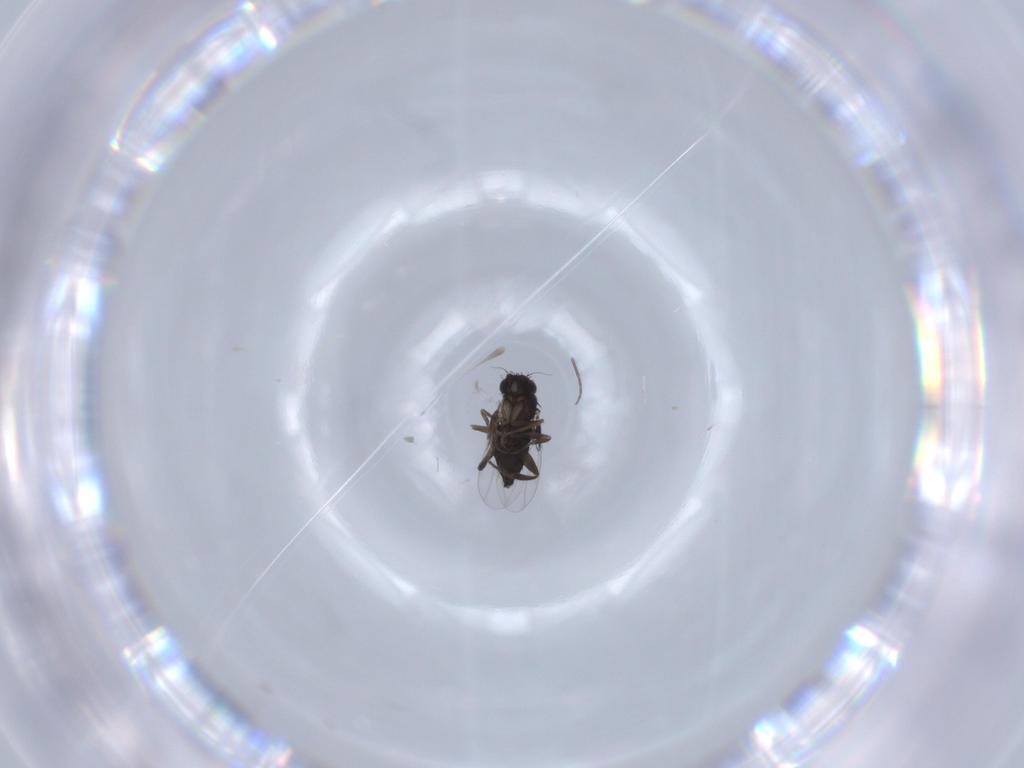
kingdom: Animalia
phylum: Arthropoda
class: Insecta
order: Diptera
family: Phoridae
